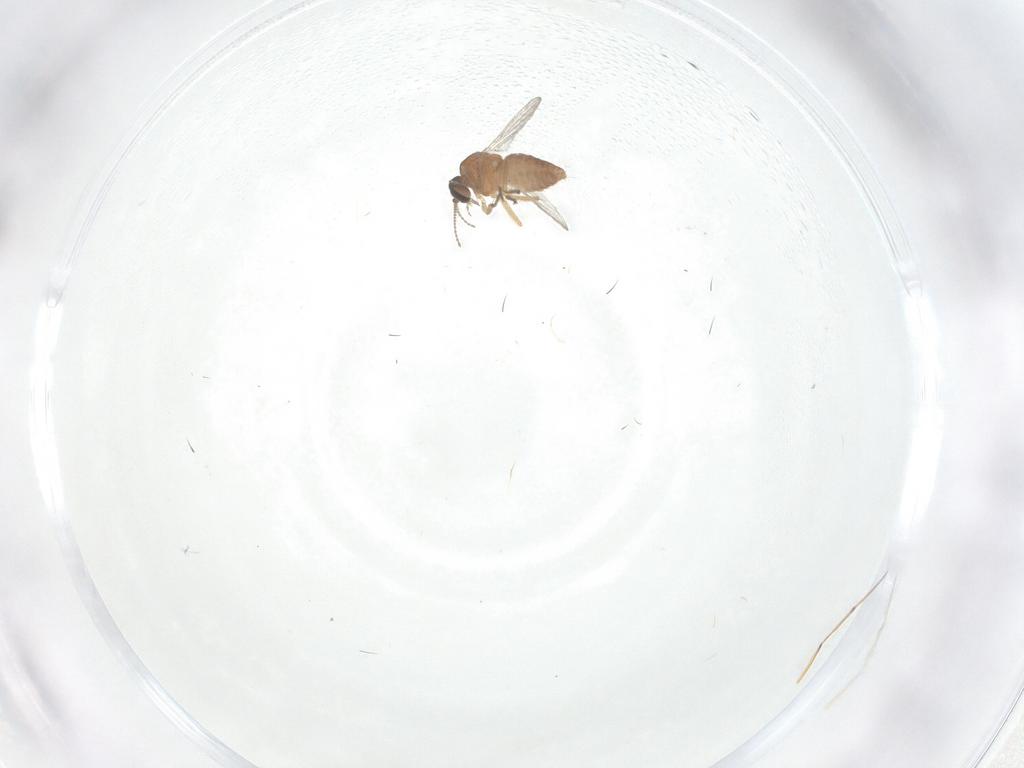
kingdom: Animalia
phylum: Arthropoda
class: Insecta
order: Diptera
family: Tabanidae
